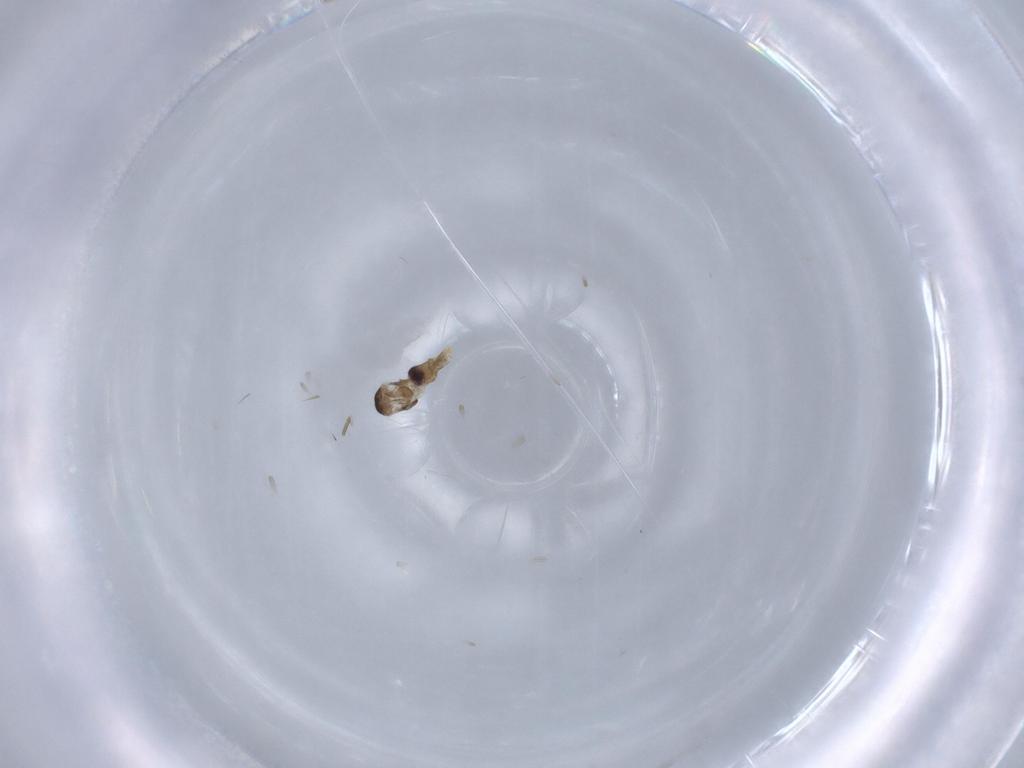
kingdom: Animalia
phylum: Arthropoda
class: Insecta
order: Diptera
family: Cecidomyiidae
